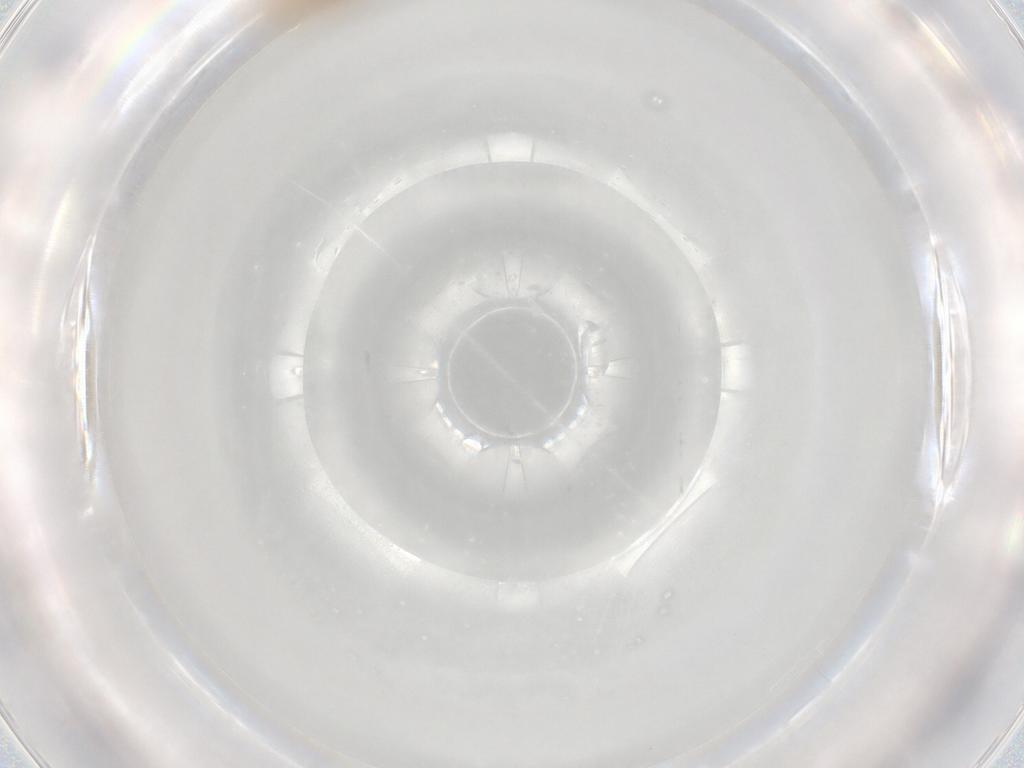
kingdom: Animalia
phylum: Arthropoda
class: Insecta
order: Psocodea
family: Caeciliusidae
